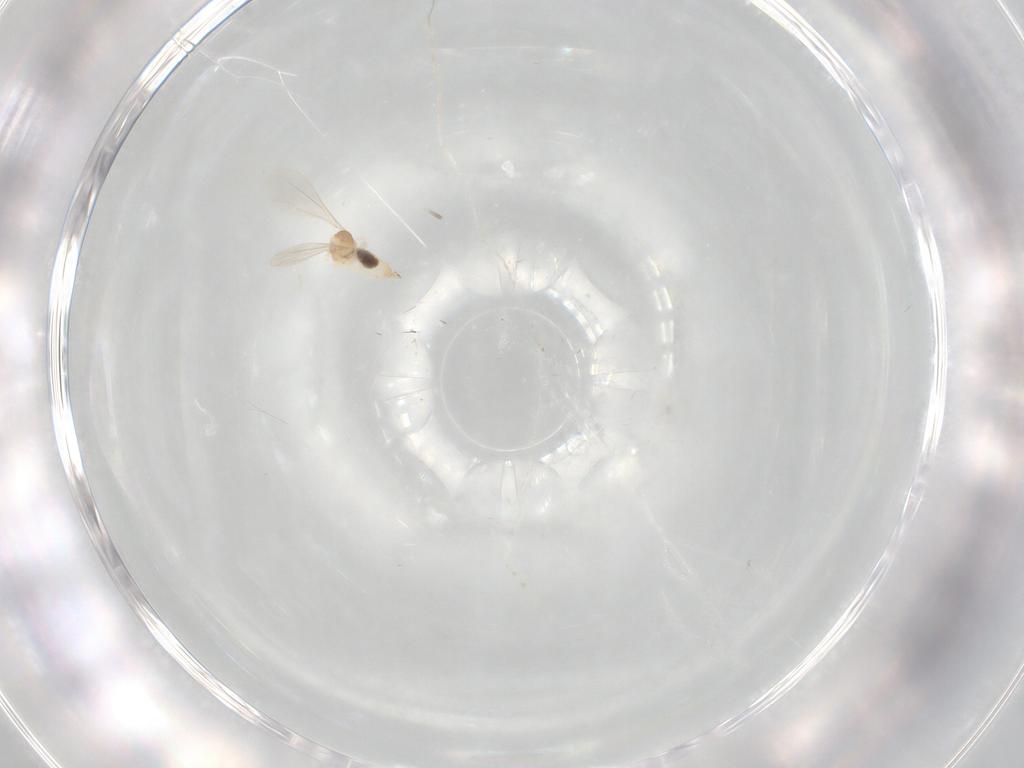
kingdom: Animalia
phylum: Arthropoda
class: Insecta
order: Diptera
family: Cecidomyiidae
